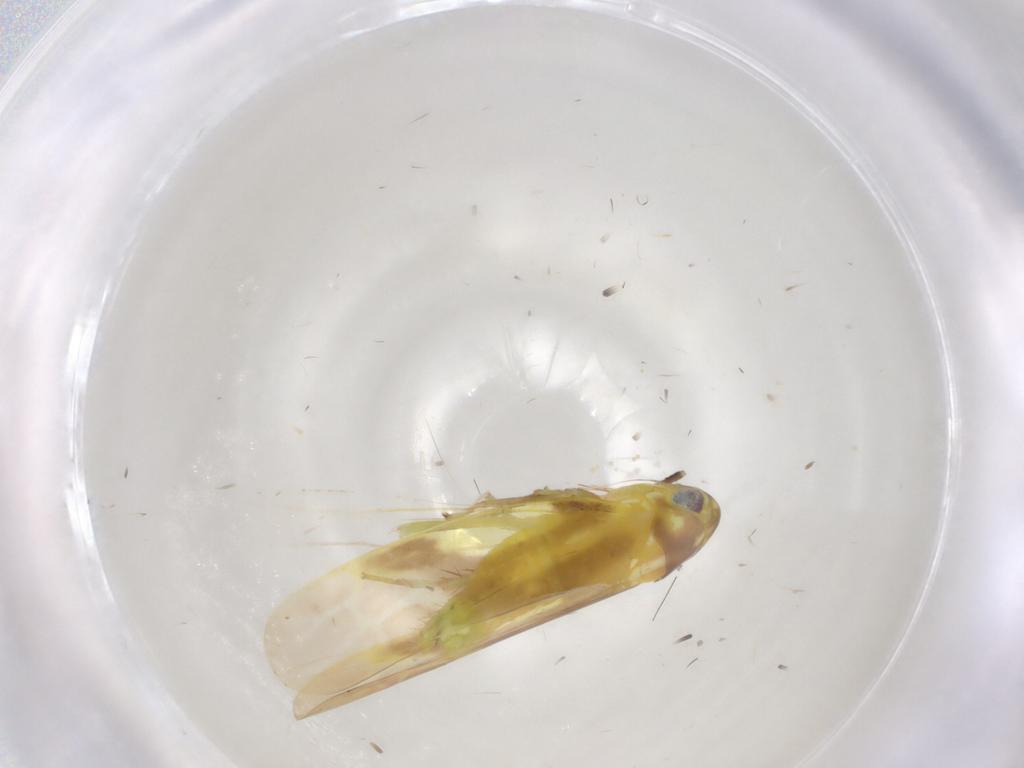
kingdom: Animalia
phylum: Arthropoda
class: Insecta
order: Hemiptera
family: Cicadellidae
